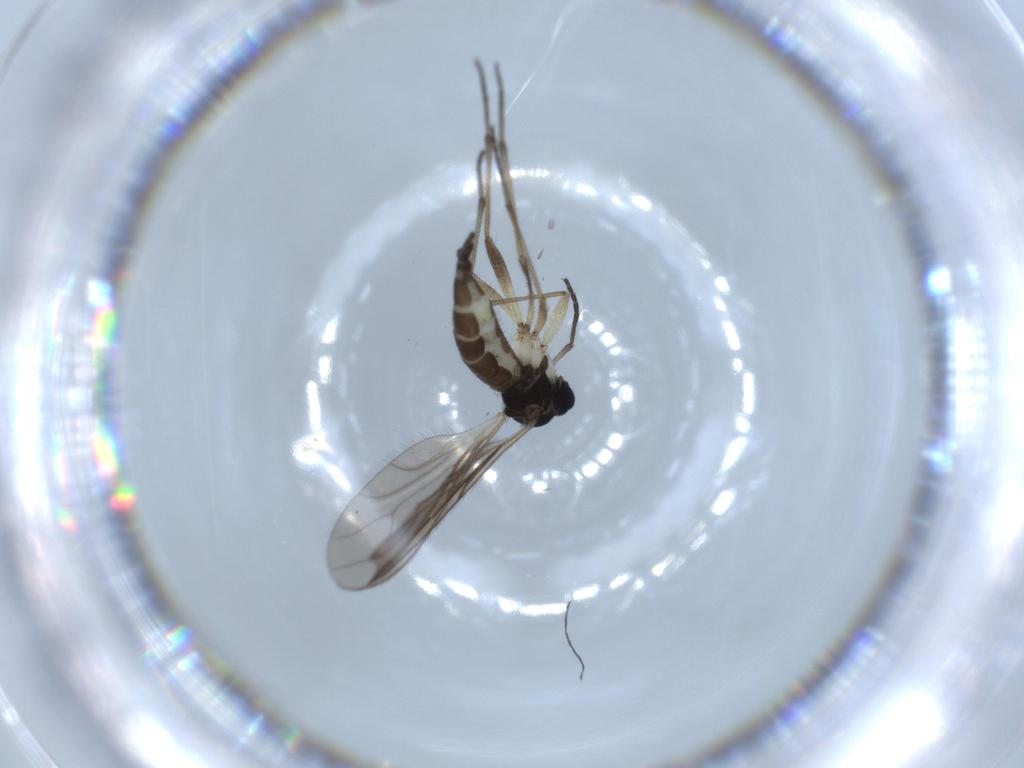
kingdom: Animalia
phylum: Arthropoda
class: Insecta
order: Diptera
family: Sciaridae
